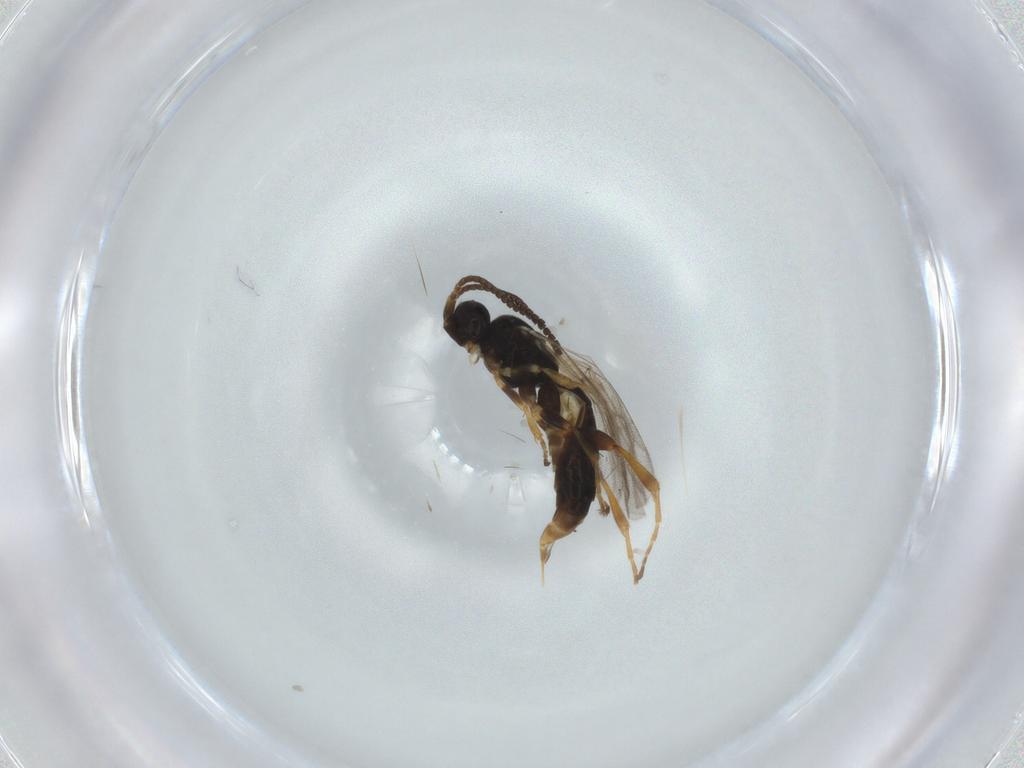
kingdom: Animalia
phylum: Arthropoda
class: Insecta
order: Hymenoptera
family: Ichneumonidae
